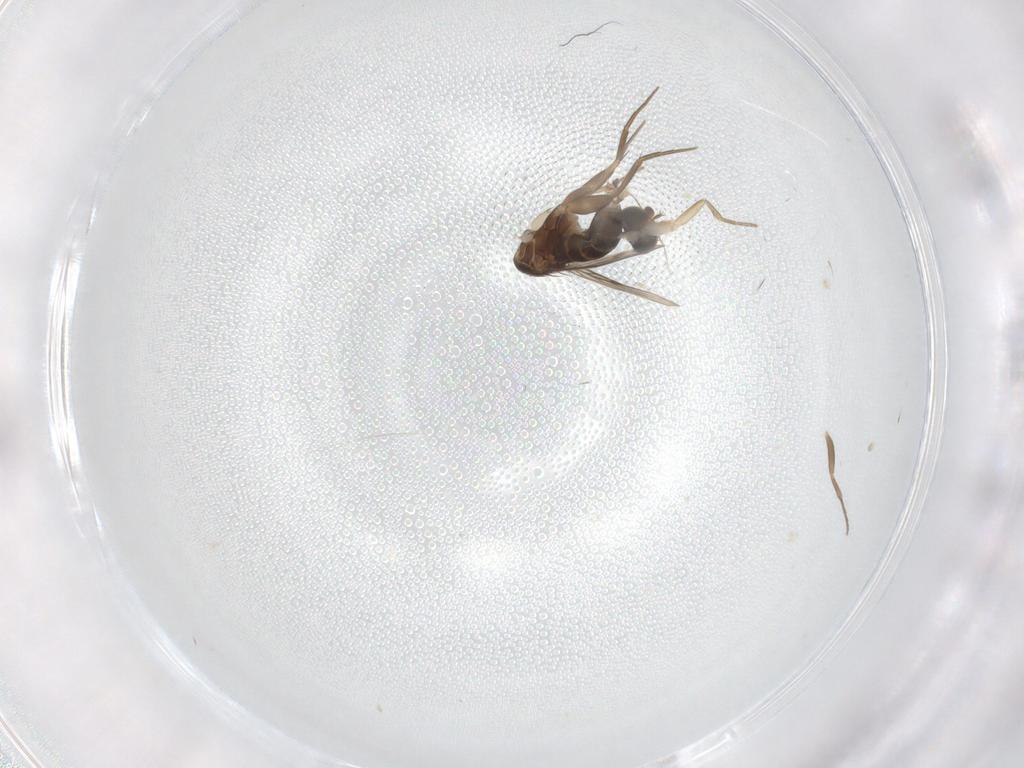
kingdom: Animalia
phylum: Arthropoda
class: Insecta
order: Diptera
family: Phoridae
